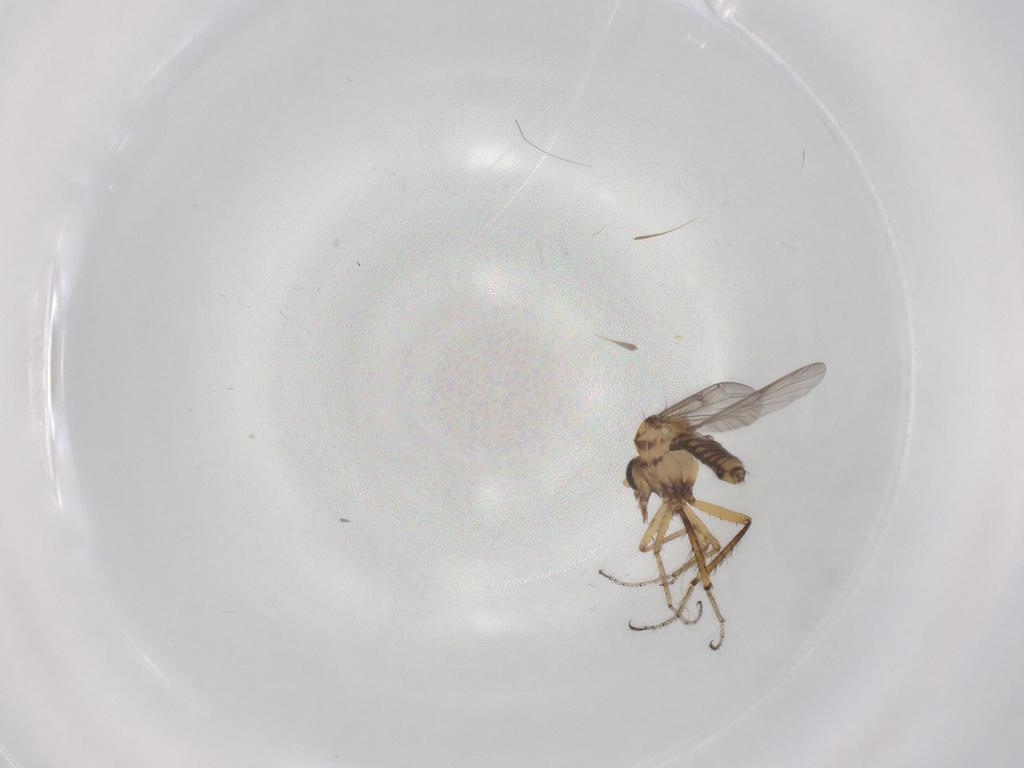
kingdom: Animalia
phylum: Arthropoda
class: Insecta
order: Diptera
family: Ceratopogonidae
